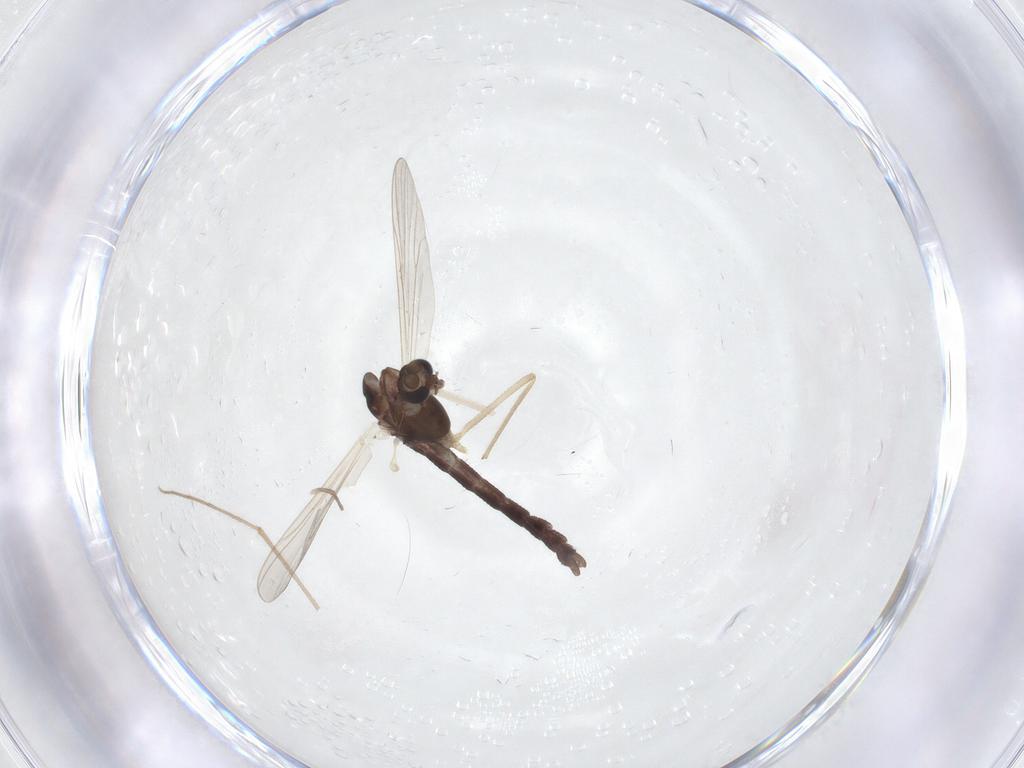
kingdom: Animalia
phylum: Arthropoda
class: Insecta
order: Diptera
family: Chironomidae
